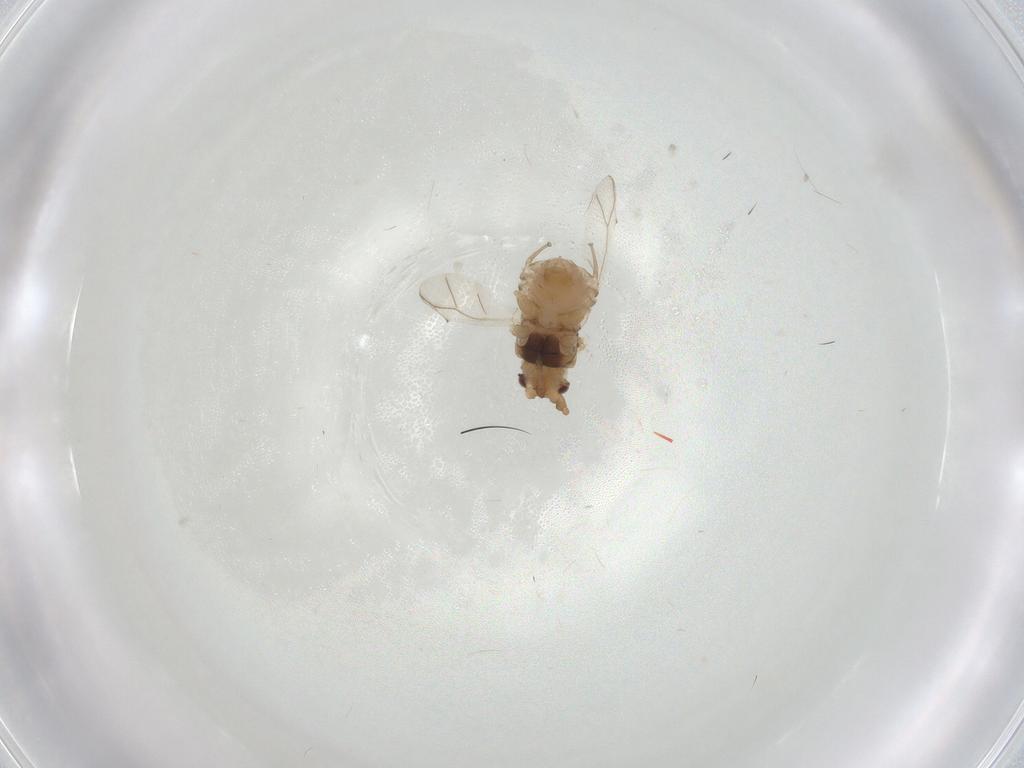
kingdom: Animalia
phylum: Arthropoda
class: Insecta
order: Hemiptera
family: Aphididae
